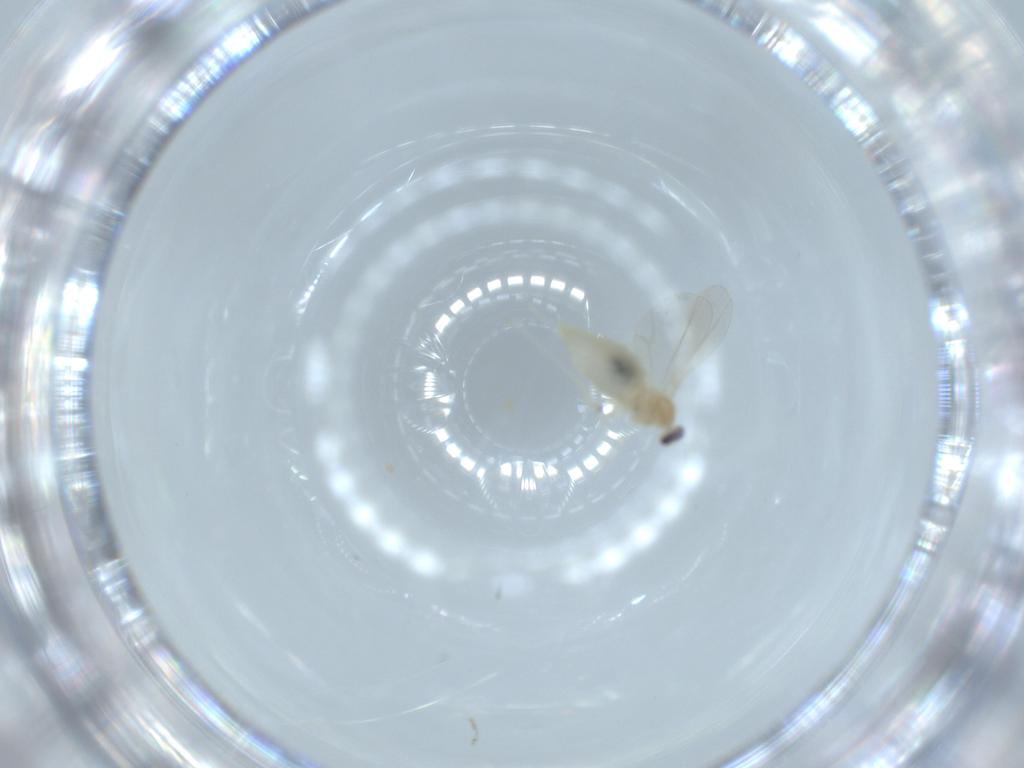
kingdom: Animalia
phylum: Arthropoda
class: Insecta
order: Diptera
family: Cecidomyiidae
